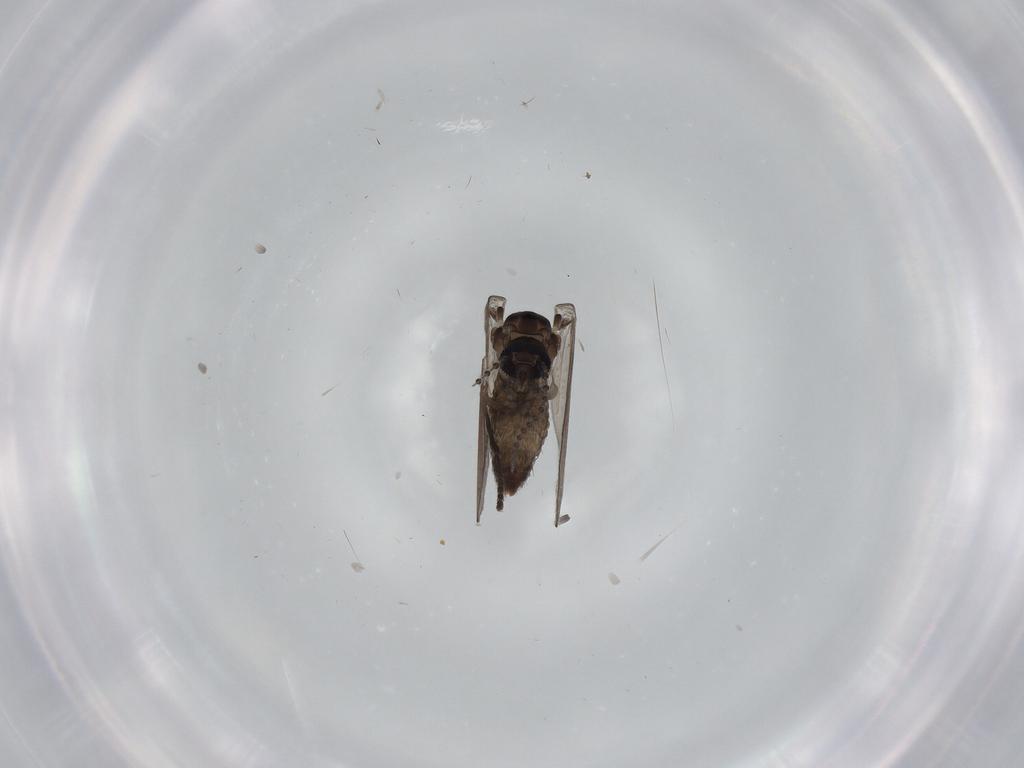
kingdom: Animalia
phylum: Arthropoda
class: Insecta
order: Diptera
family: Psychodidae
